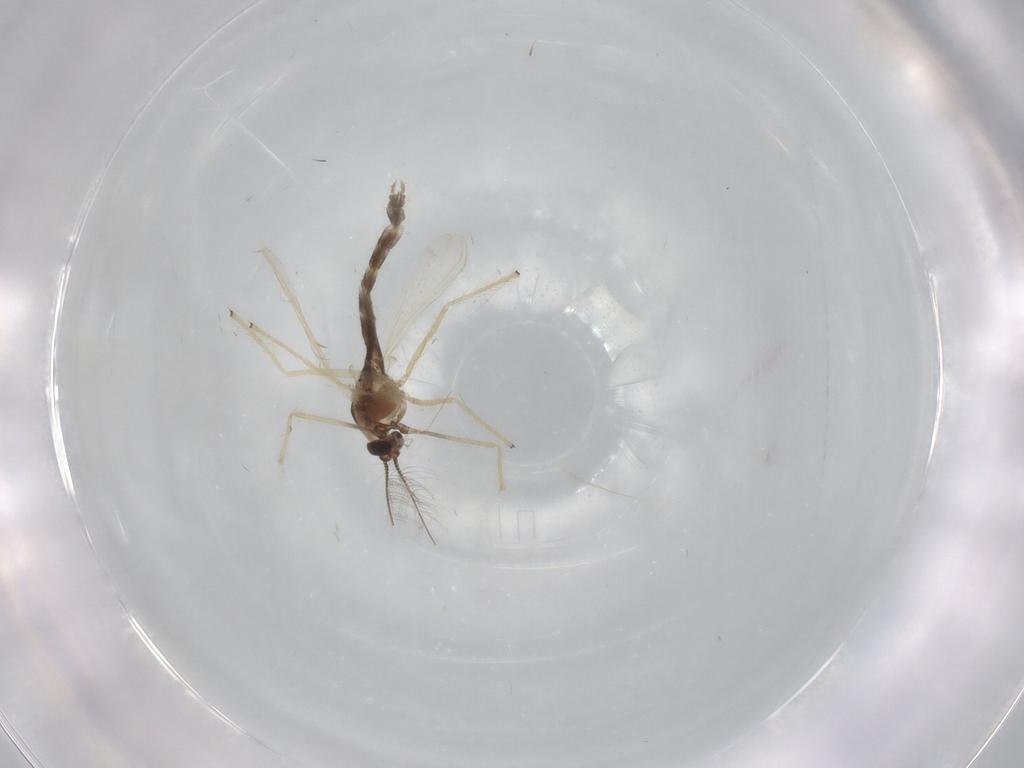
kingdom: Animalia
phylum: Arthropoda
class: Insecta
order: Diptera
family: Chironomidae
